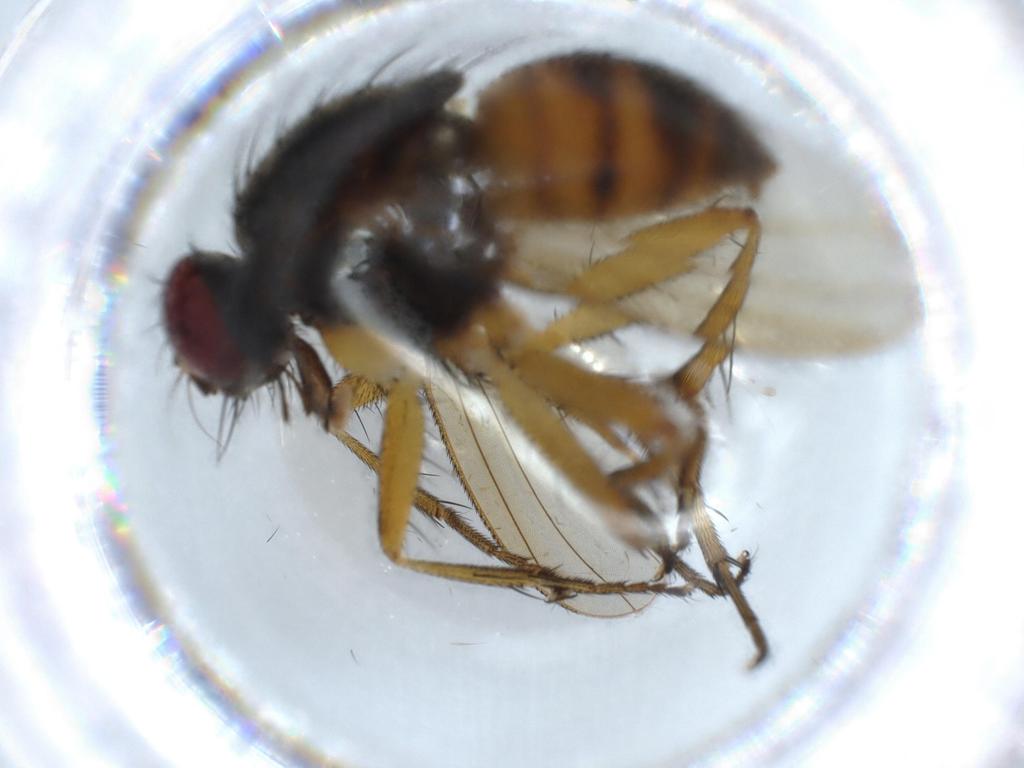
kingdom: Animalia
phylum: Arthropoda
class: Insecta
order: Diptera
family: Muscidae
